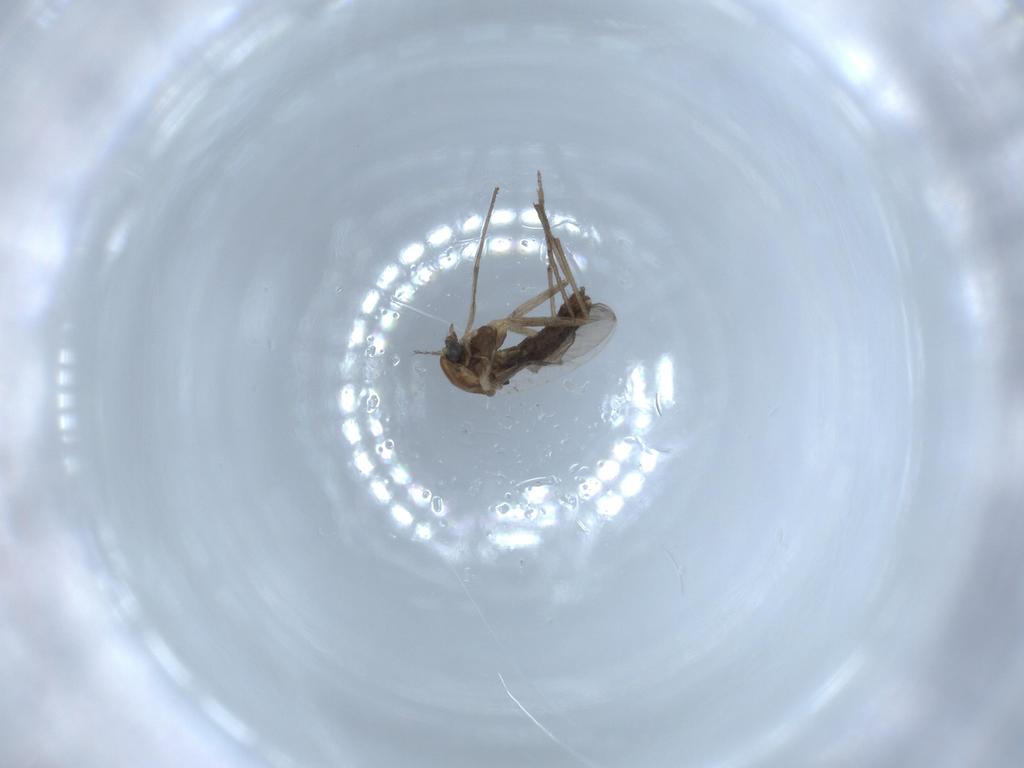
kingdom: Animalia
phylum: Arthropoda
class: Insecta
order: Diptera
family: Chironomidae
